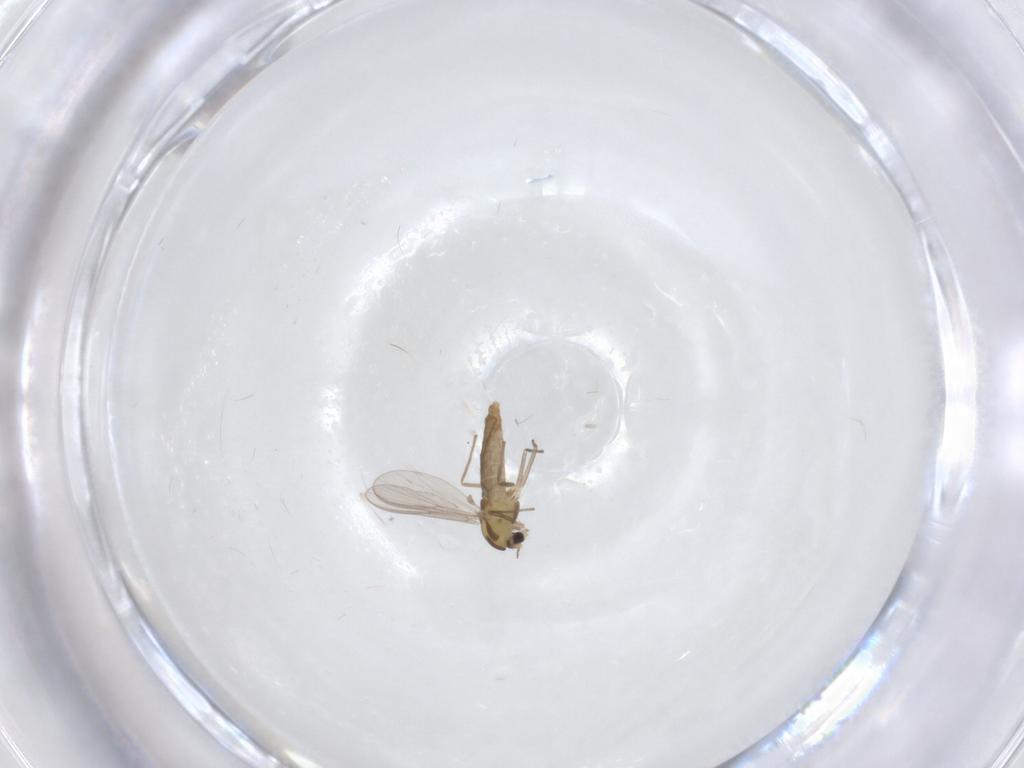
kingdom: Animalia
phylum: Arthropoda
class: Insecta
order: Diptera
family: Chironomidae
